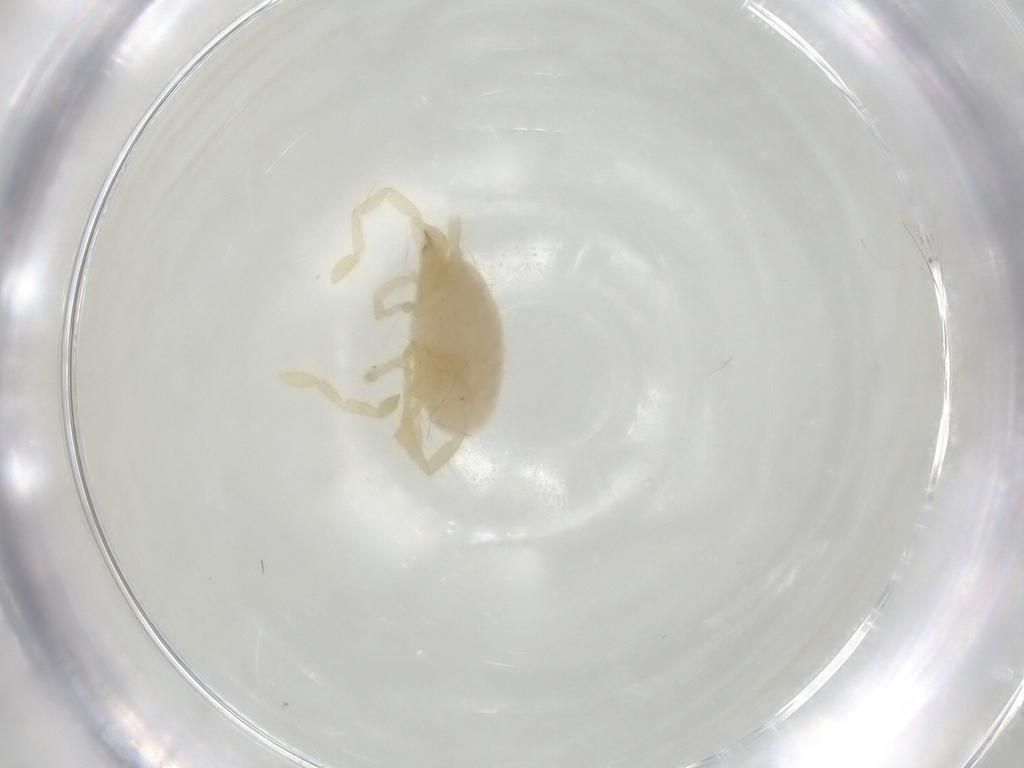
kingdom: Animalia
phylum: Arthropoda
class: Arachnida
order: Trombidiformes
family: Erythraeidae
